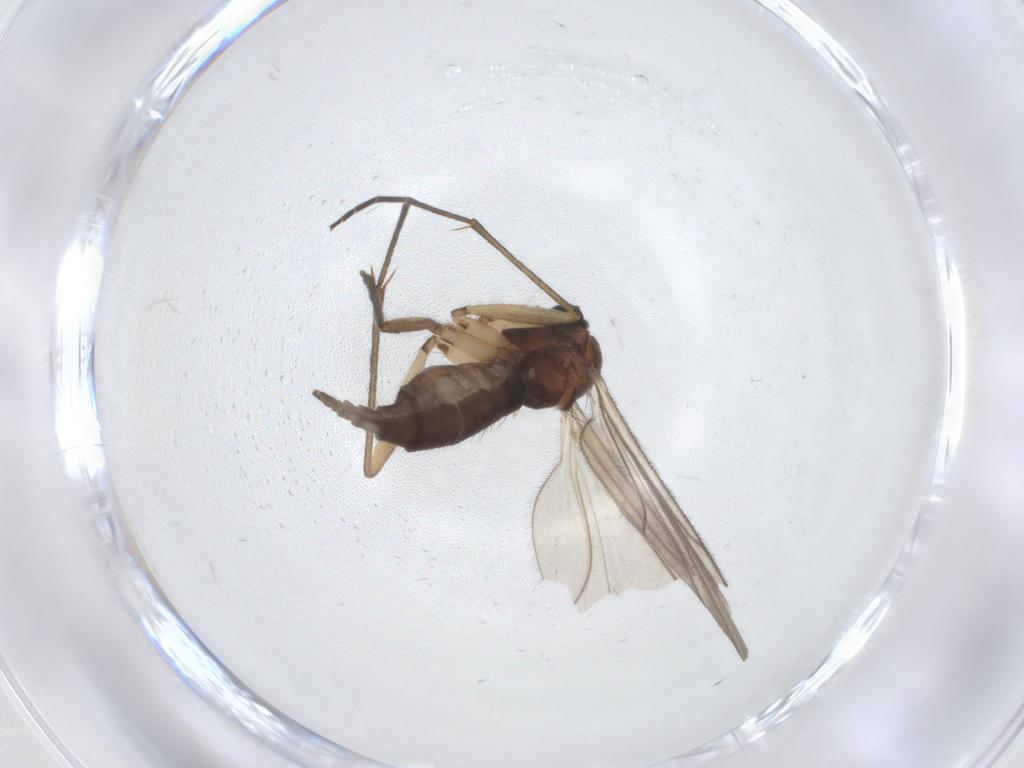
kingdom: Animalia
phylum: Arthropoda
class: Insecta
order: Diptera
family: Sciaridae
